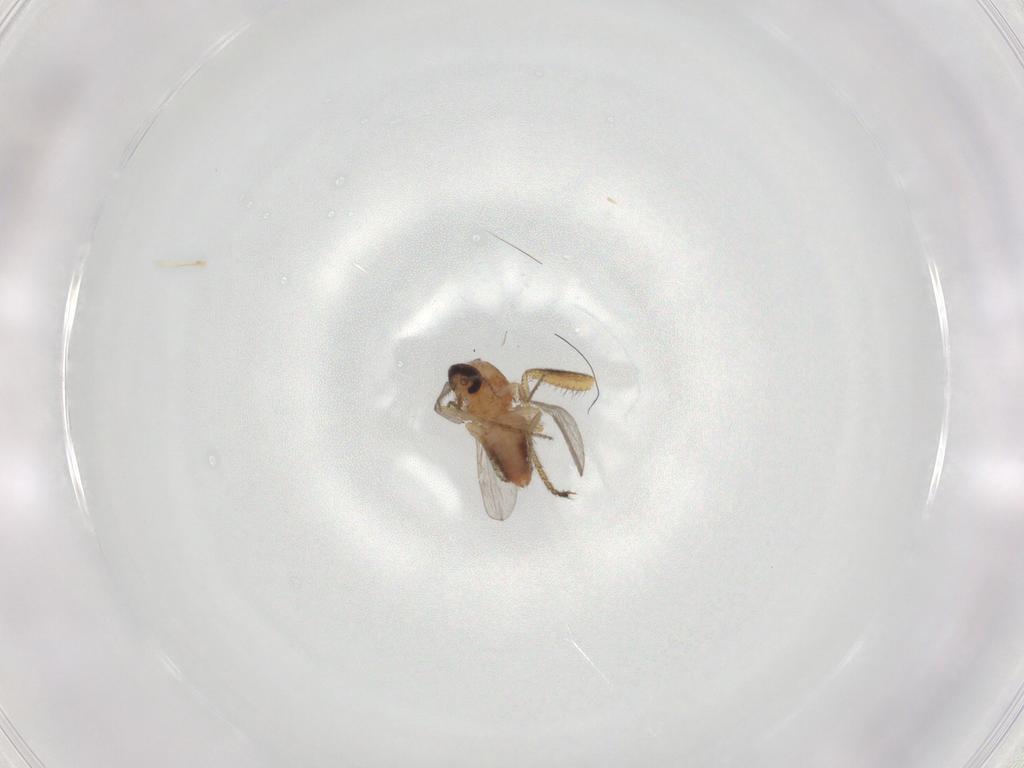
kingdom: Animalia
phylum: Arthropoda
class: Insecta
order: Diptera
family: Ceratopogonidae
